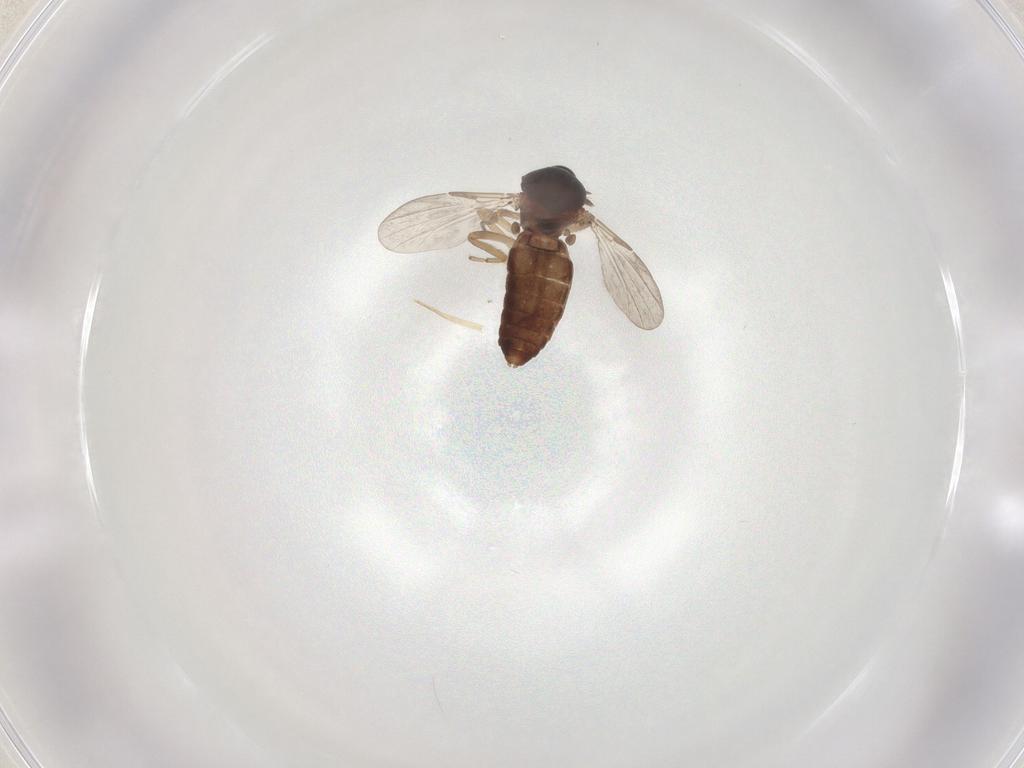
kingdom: Animalia
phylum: Arthropoda
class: Insecta
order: Diptera
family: Ceratopogonidae
